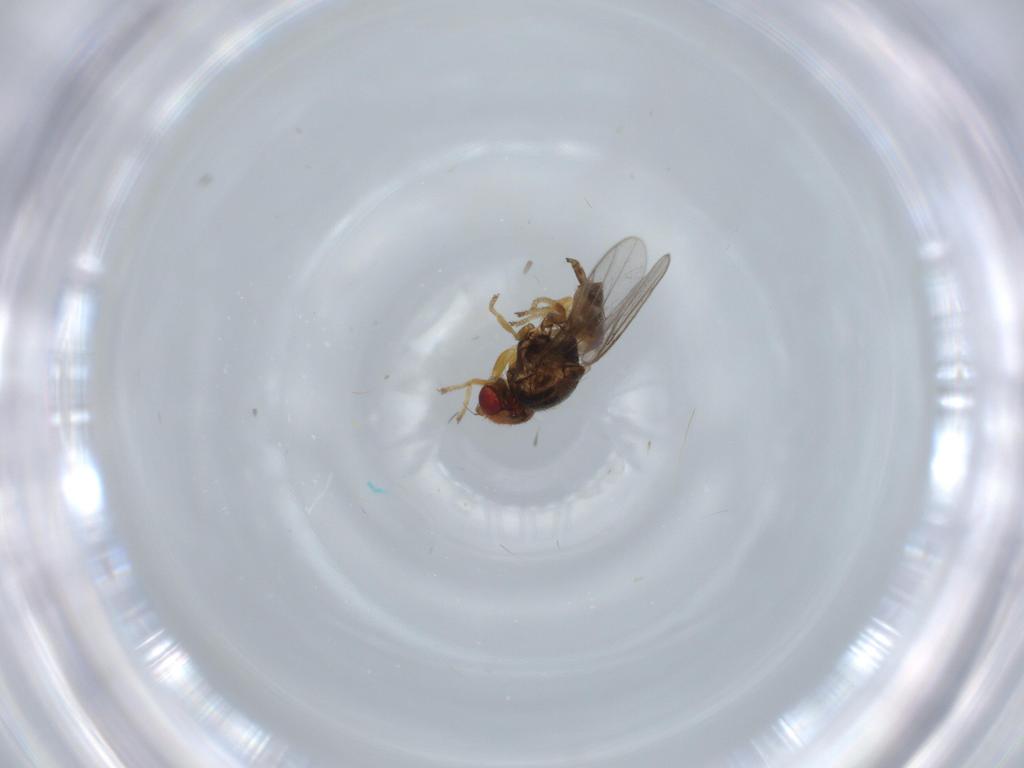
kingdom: Animalia
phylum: Arthropoda
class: Insecta
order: Diptera
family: Chloropidae
